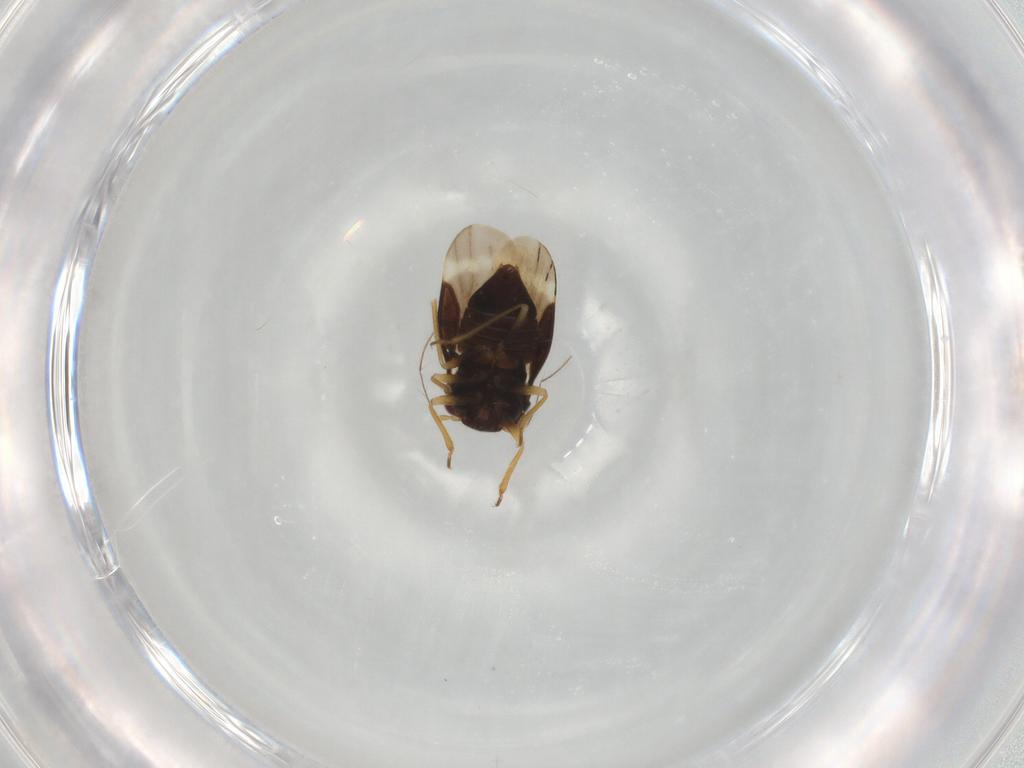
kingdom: Animalia
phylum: Arthropoda
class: Insecta
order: Hemiptera
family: Schizopteridae
